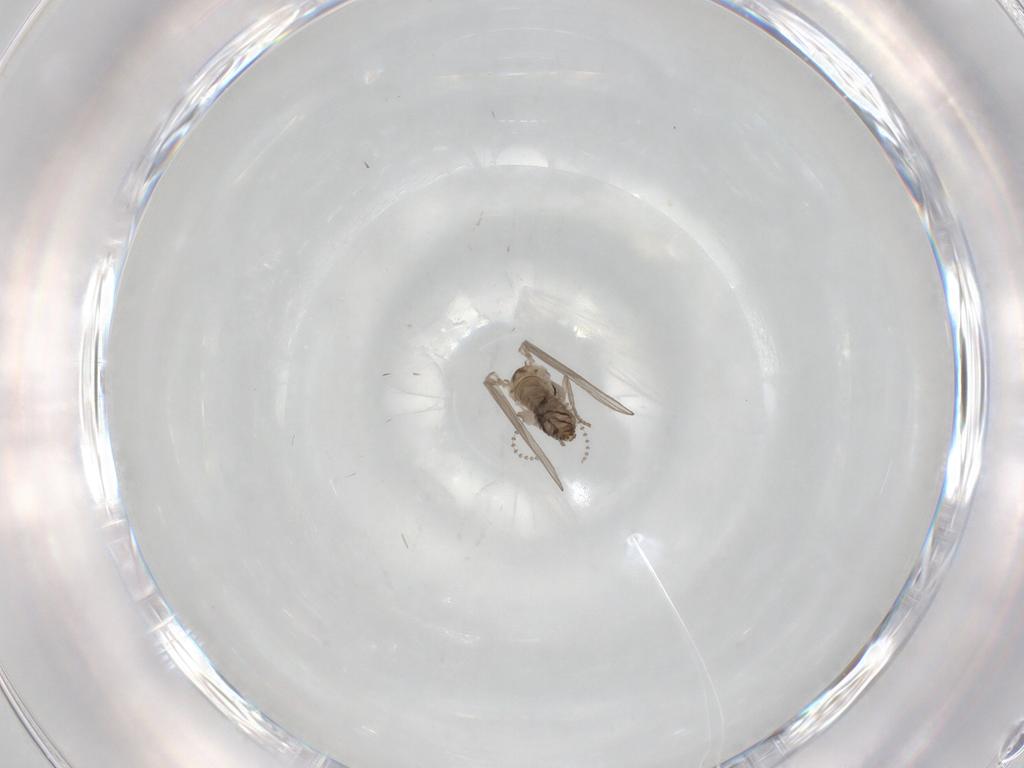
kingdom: Animalia
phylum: Arthropoda
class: Insecta
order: Diptera
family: Psychodidae
